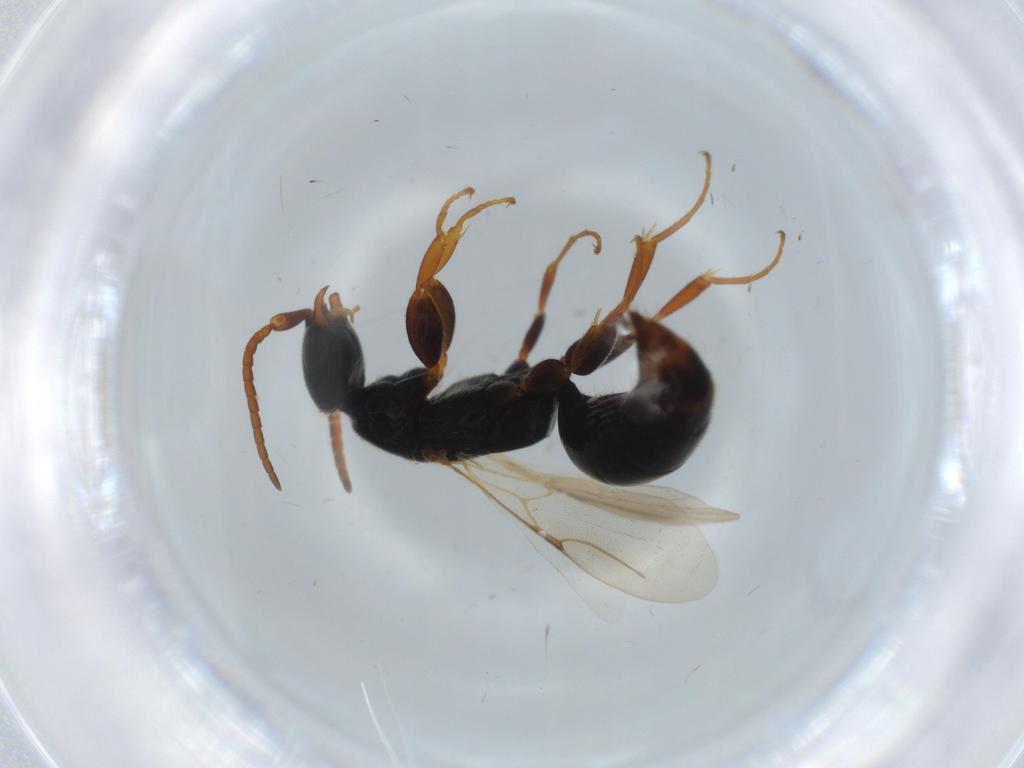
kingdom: Animalia
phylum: Arthropoda
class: Insecta
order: Hymenoptera
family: Bethylidae
